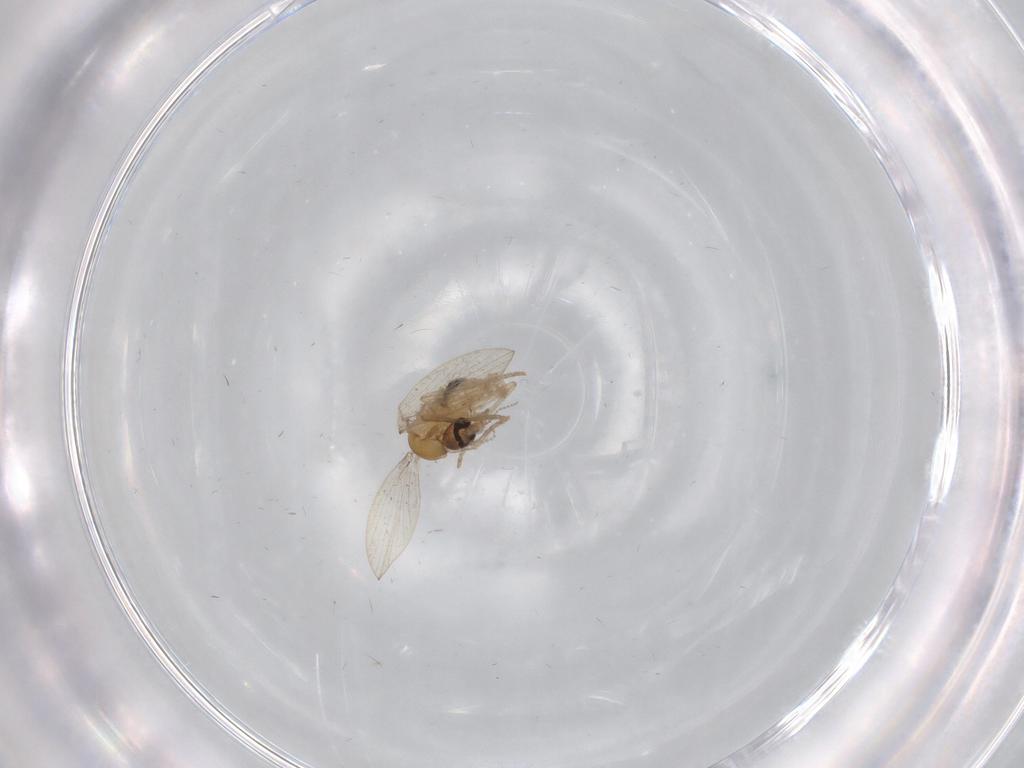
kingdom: Animalia
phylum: Arthropoda
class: Insecta
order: Diptera
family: Psychodidae
